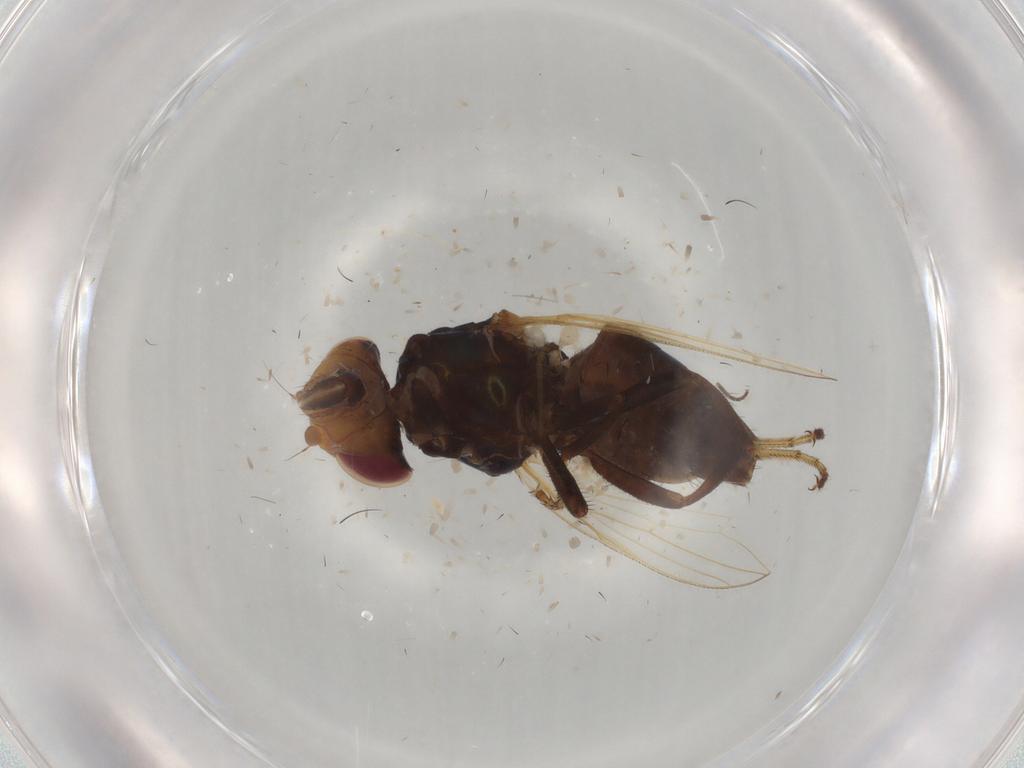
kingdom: Animalia
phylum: Arthropoda
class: Insecta
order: Diptera
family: Ulidiidae
